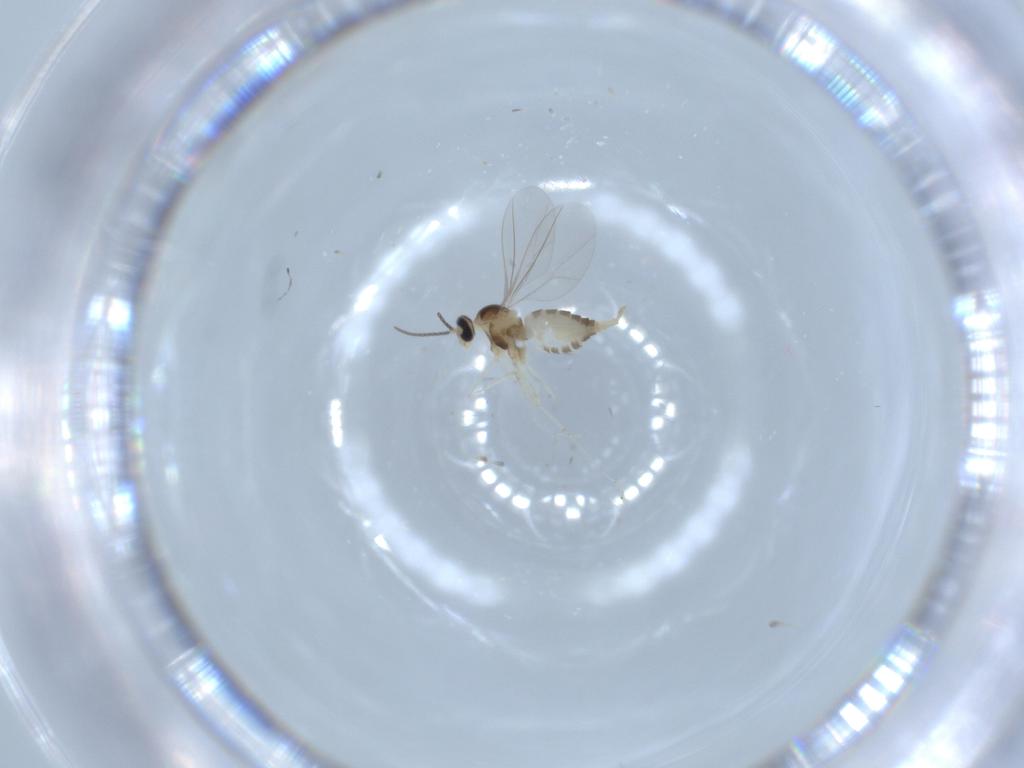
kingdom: Animalia
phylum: Arthropoda
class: Insecta
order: Diptera
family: Cecidomyiidae
